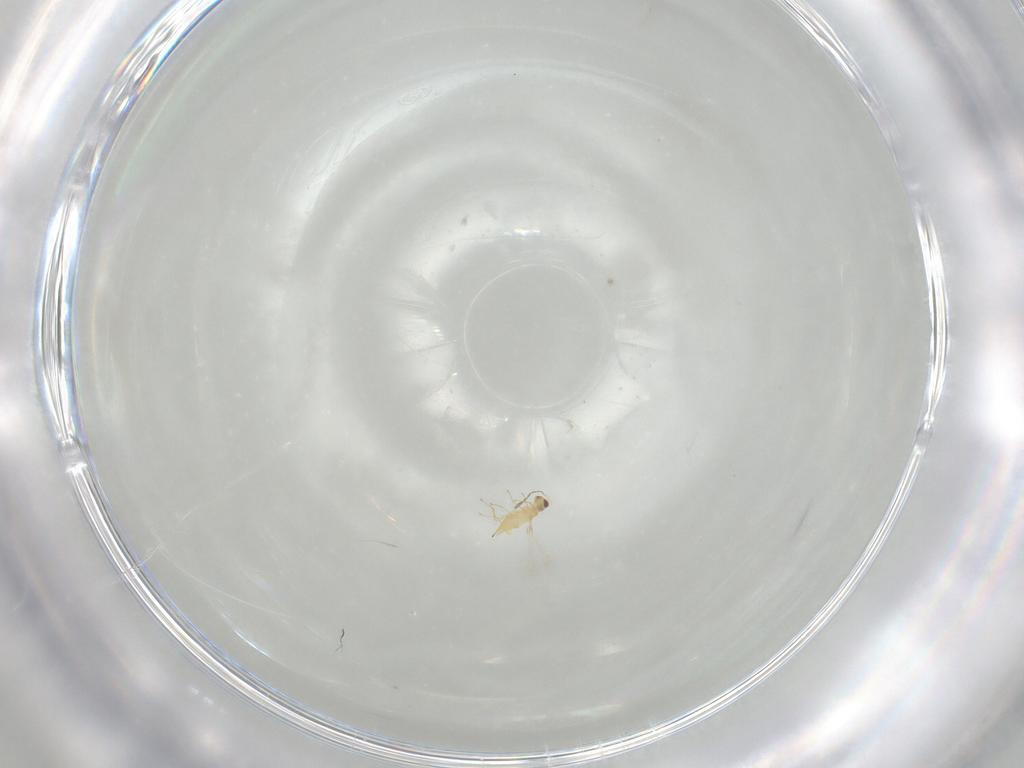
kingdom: Animalia
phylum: Arthropoda
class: Insecta
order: Hymenoptera
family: Mymaridae
